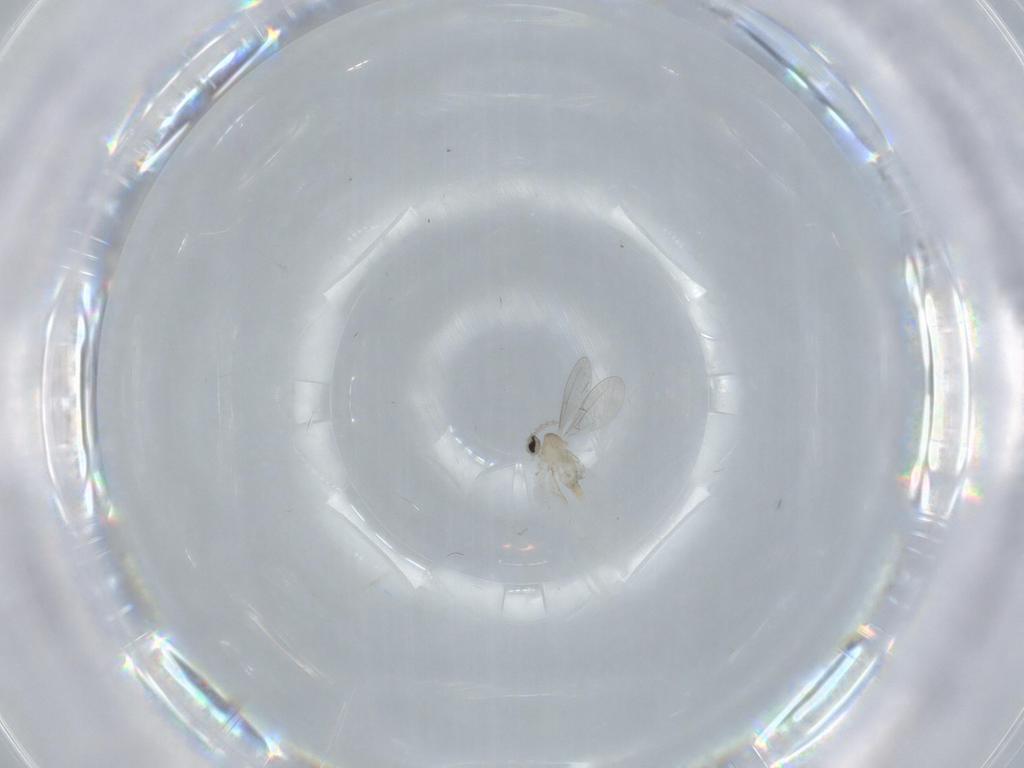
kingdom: Animalia
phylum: Arthropoda
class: Insecta
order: Diptera
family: Cecidomyiidae
